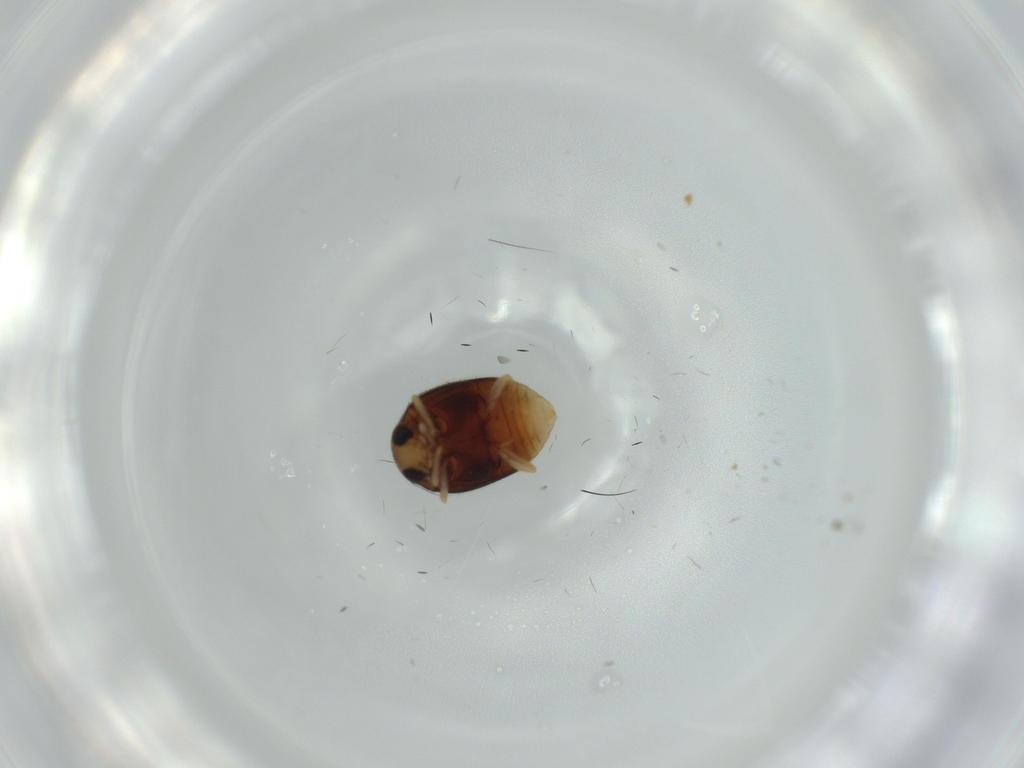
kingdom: Animalia
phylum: Arthropoda
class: Insecta
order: Coleoptera
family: Coccinellidae
